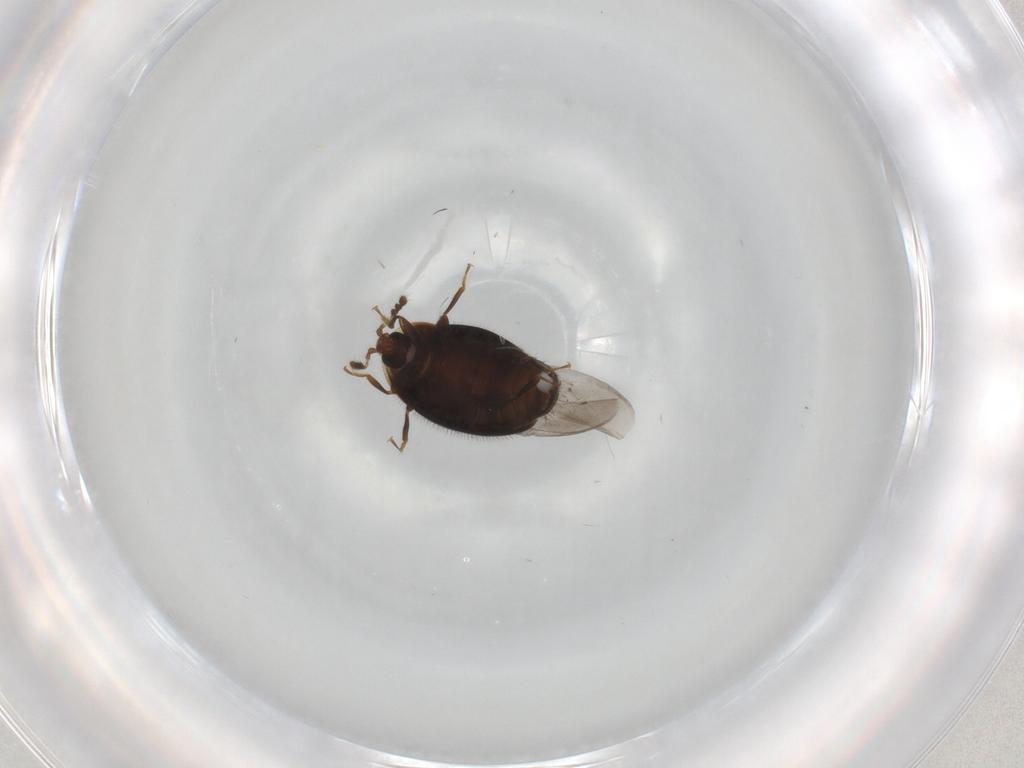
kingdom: Animalia
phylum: Arthropoda
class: Insecta
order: Coleoptera
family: Corylophidae
